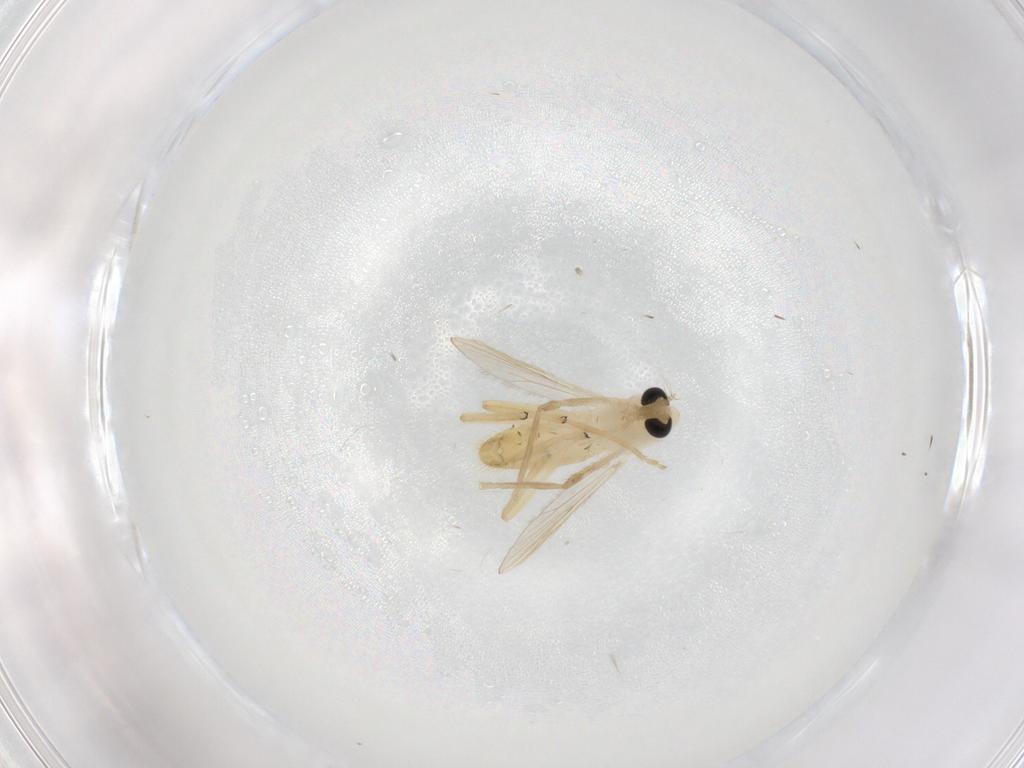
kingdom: Animalia
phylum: Arthropoda
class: Insecta
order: Diptera
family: Chironomidae
